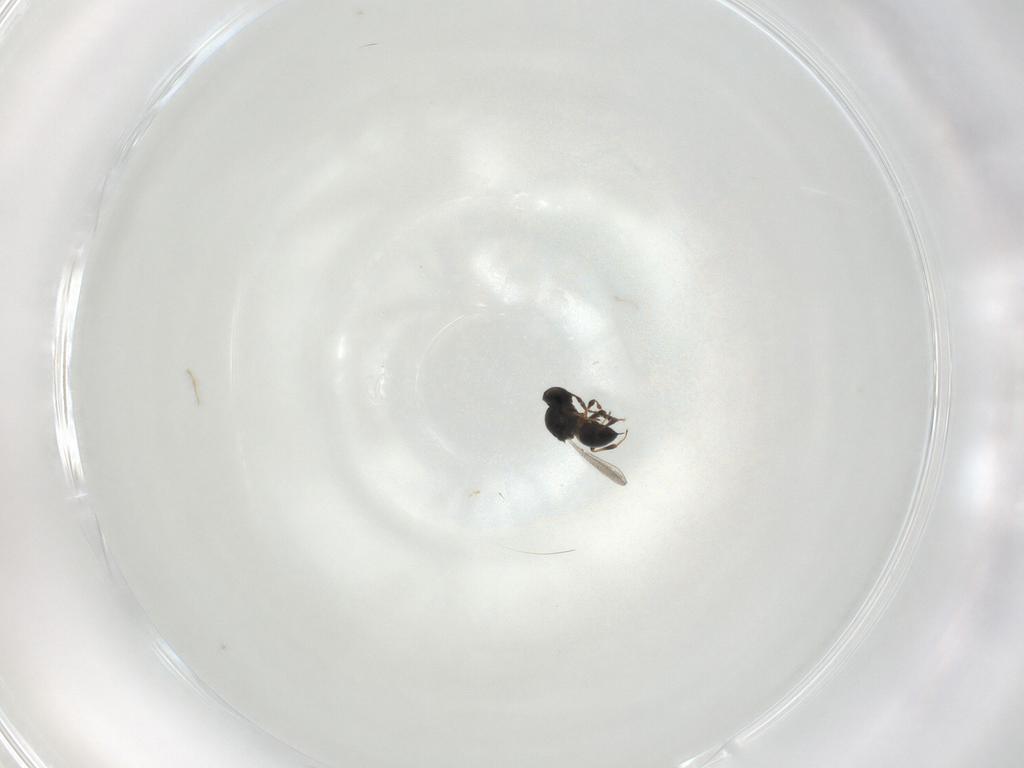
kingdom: Animalia
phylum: Arthropoda
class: Insecta
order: Hymenoptera
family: Platygastridae
